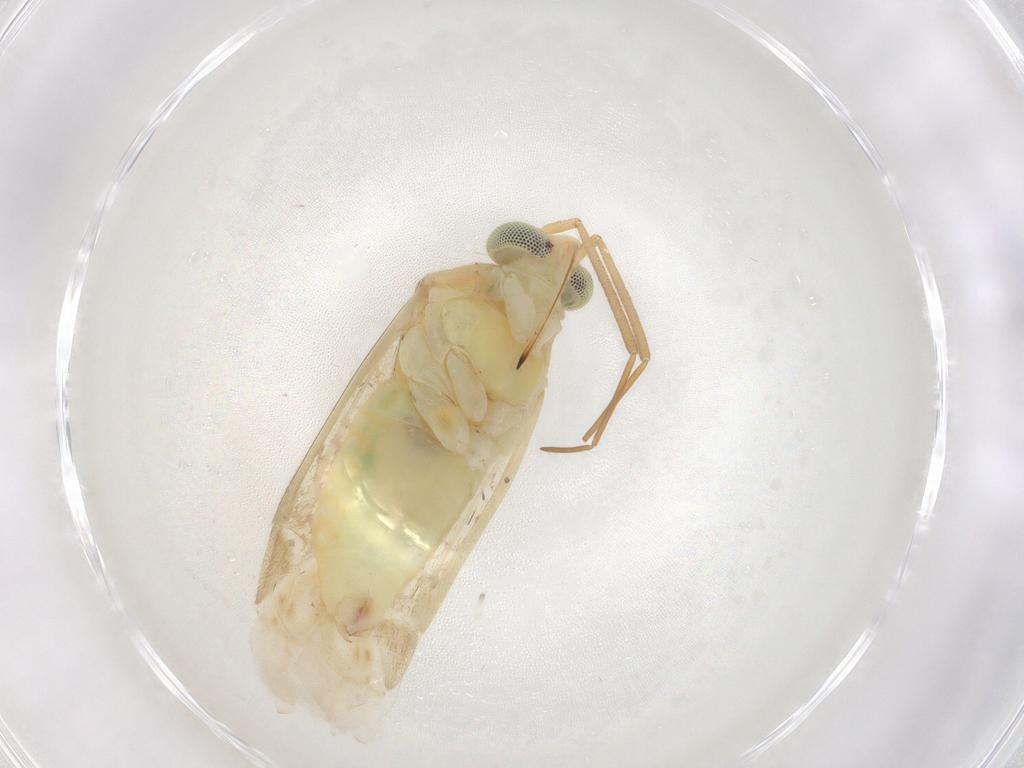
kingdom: Animalia
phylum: Arthropoda
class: Insecta
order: Hemiptera
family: Miridae
